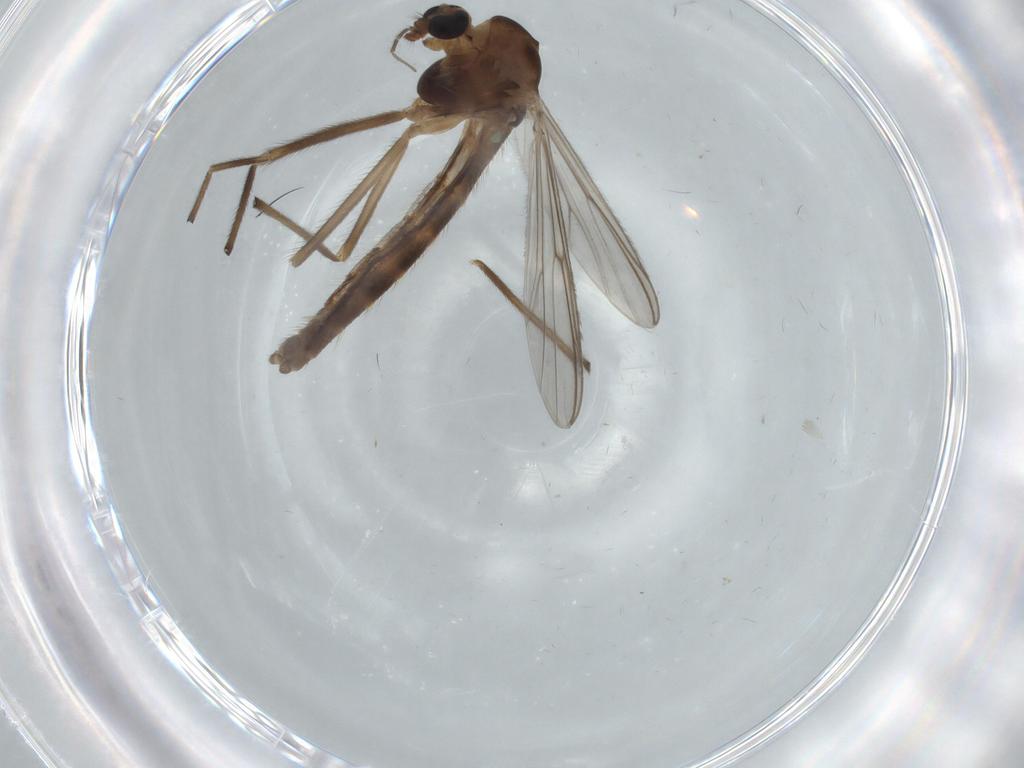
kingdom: Animalia
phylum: Arthropoda
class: Insecta
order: Diptera
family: Chironomidae
